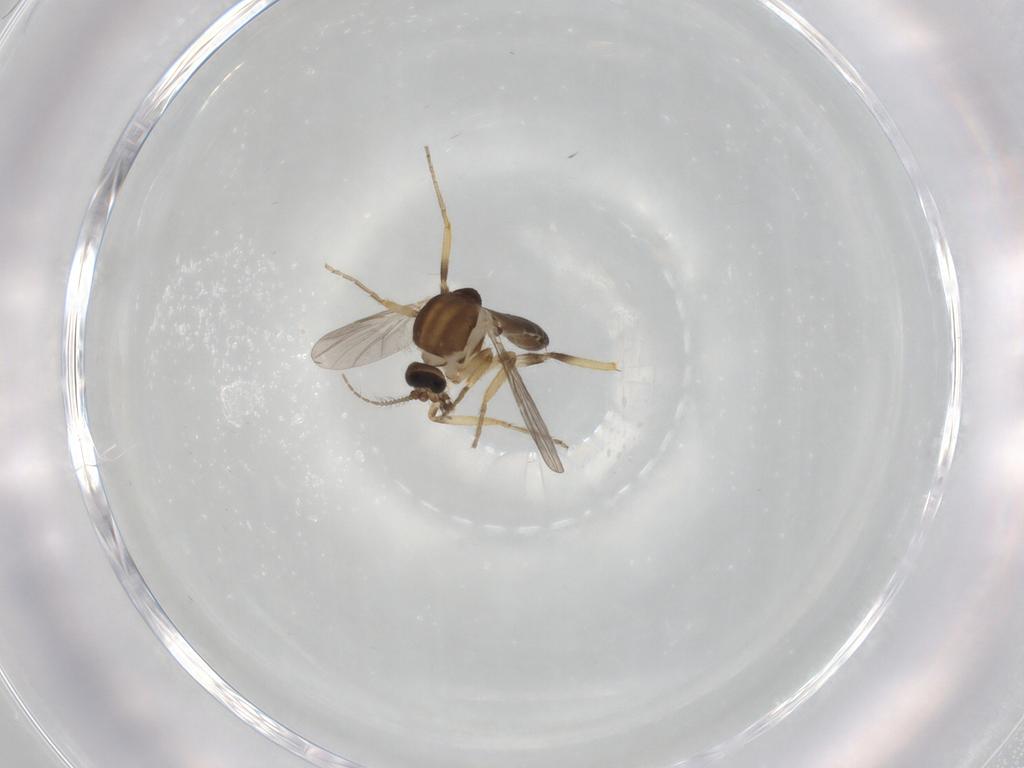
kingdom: Animalia
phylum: Arthropoda
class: Insecta
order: Diptera
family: Ceratopogonidae
